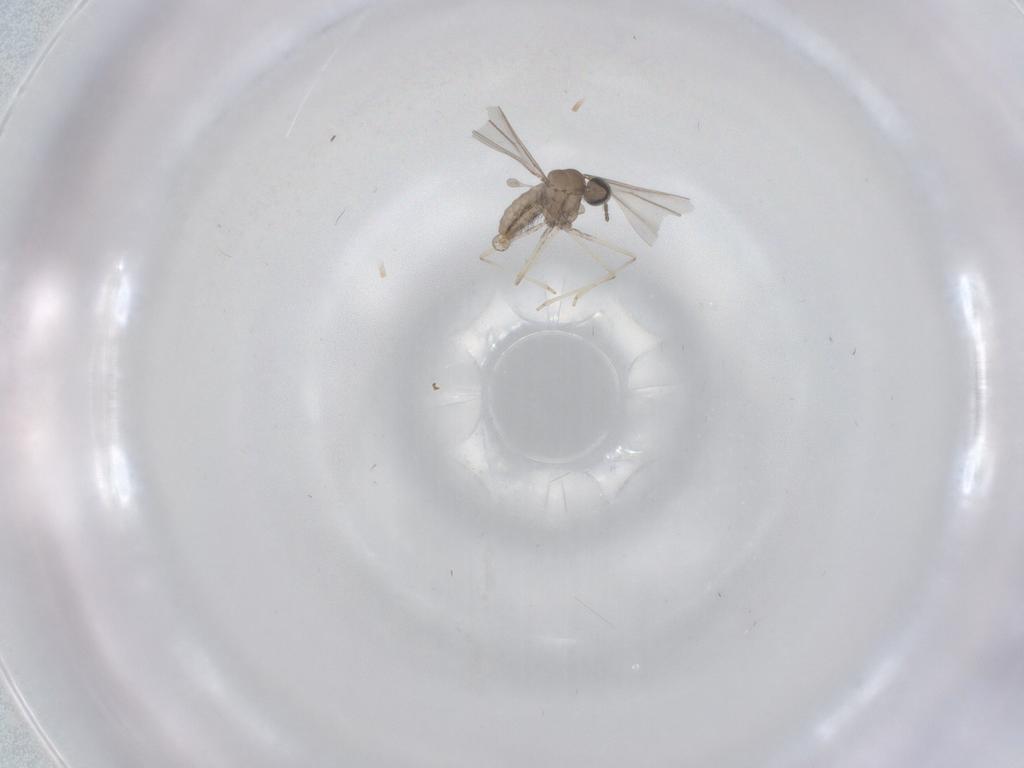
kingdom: Animalia
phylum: Arthropoda
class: Insecta
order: Diptera
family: Cecidomyiidae
